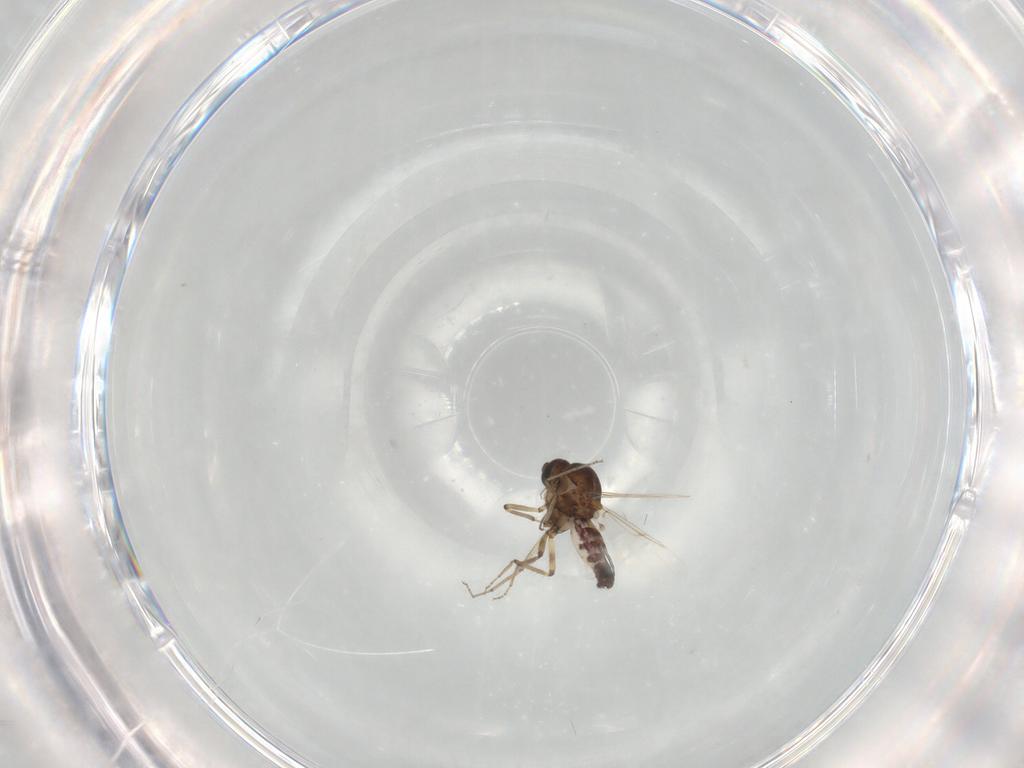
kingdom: Animalia
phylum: Arthropoda
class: Insecta
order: Diptera
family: Ceratopogonidae
